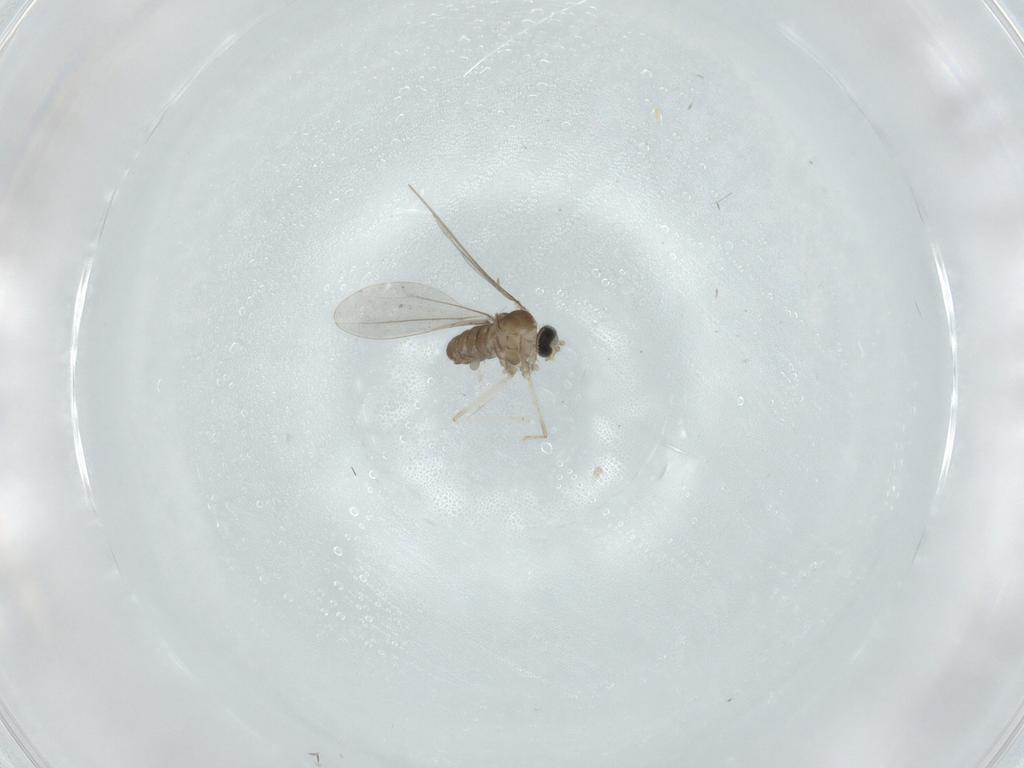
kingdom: Animalia
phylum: Arthropoda
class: Insecta
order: Diptera
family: Cecidomyiidae
